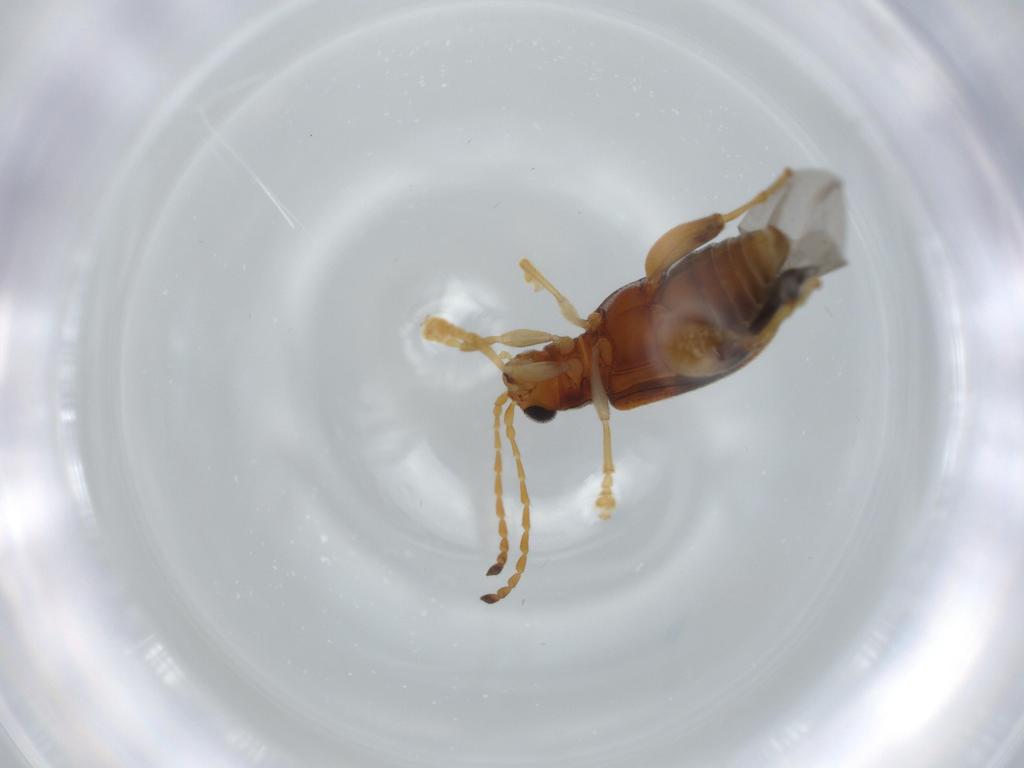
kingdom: Animalia
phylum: Arthropoda
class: Insecta
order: Coleoptera
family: Chrysomelidae
